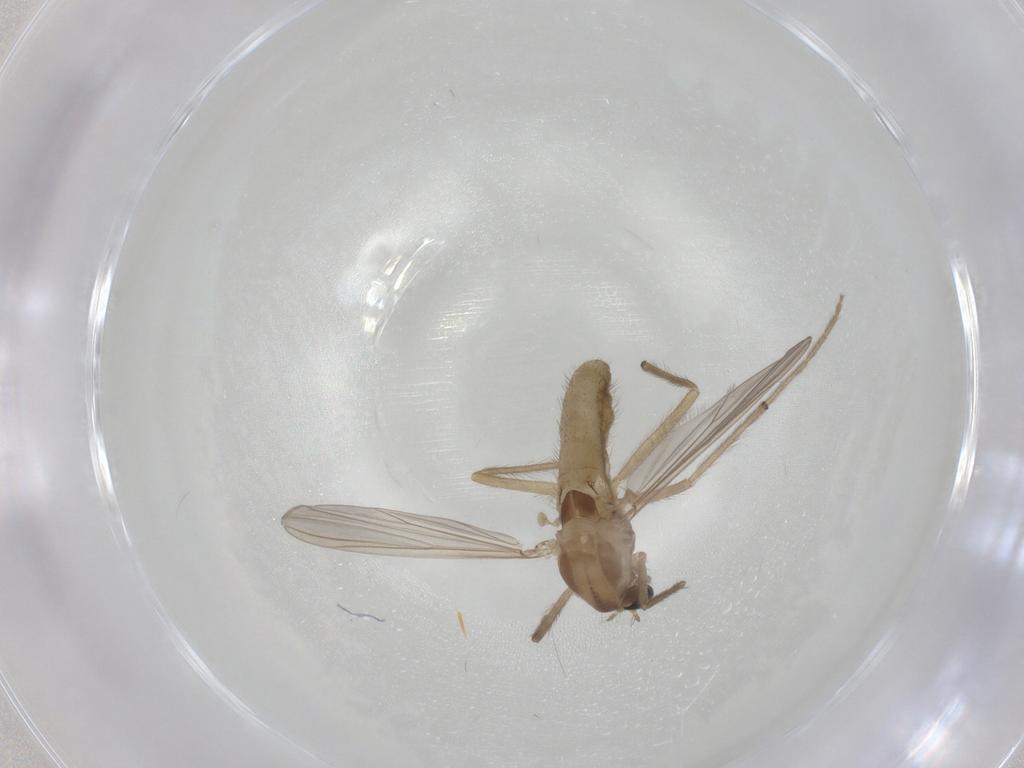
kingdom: Animalia
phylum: Arthropoda
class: Insecta
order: Diptera
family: Chironomidae
